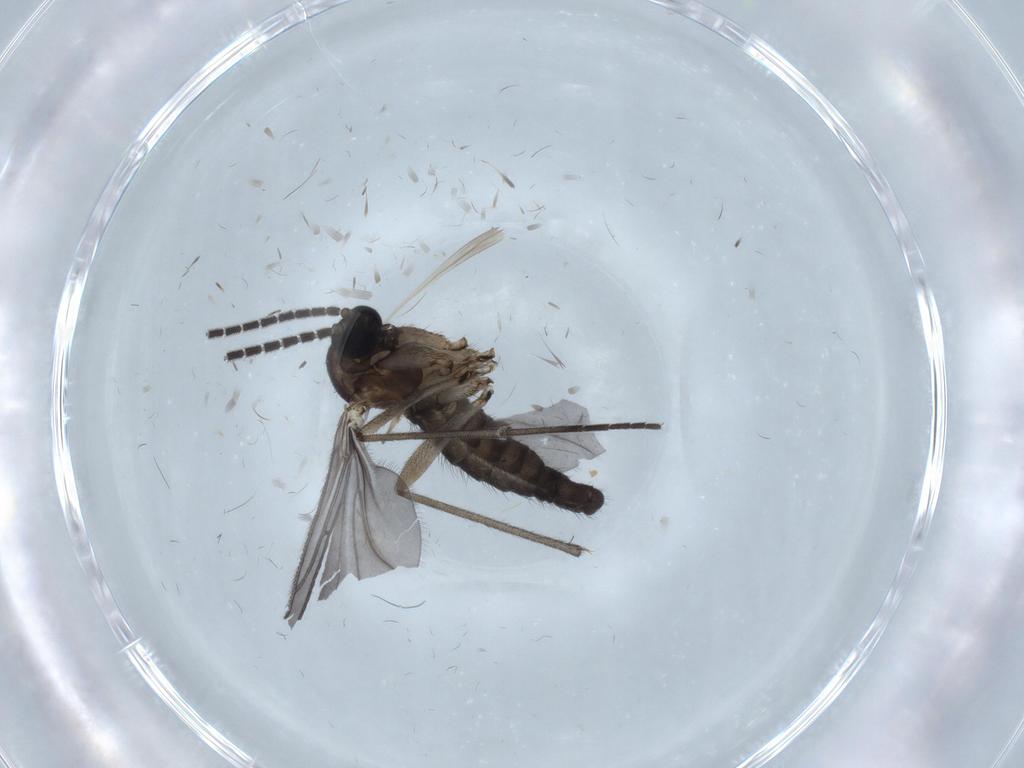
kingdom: Animalia
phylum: Arthropoda
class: Insecta
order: Diptera
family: Sciaridae
